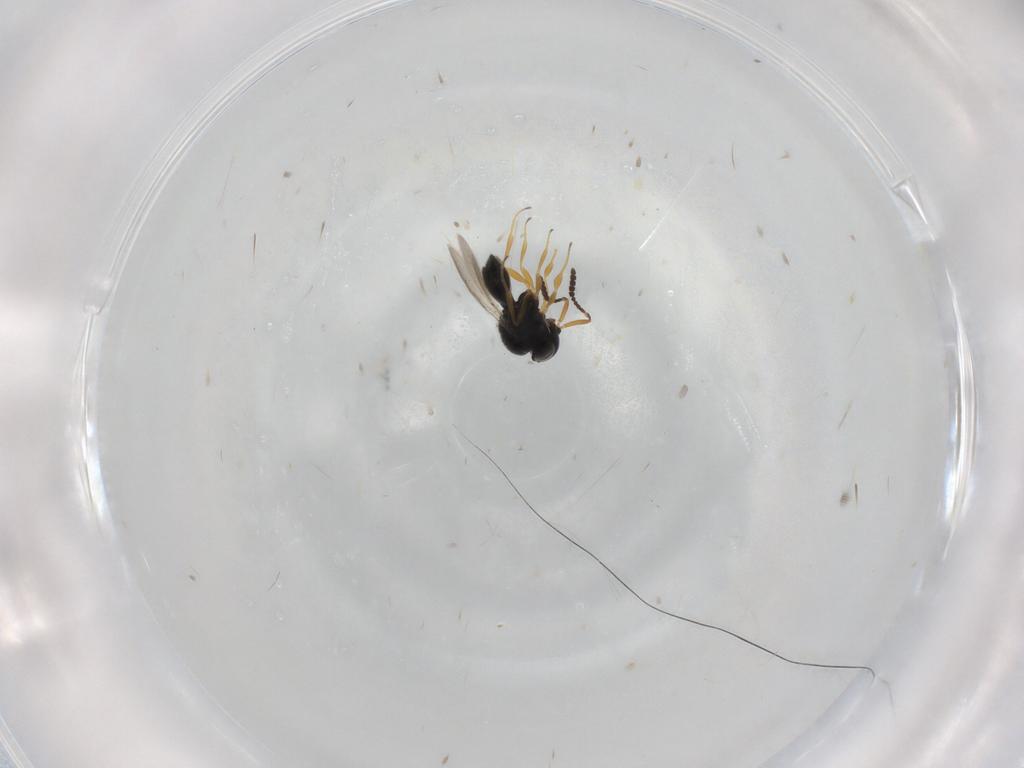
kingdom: Animalia
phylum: Arthropoda
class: Insecta
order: Hymenoptera
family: Scelionidae
